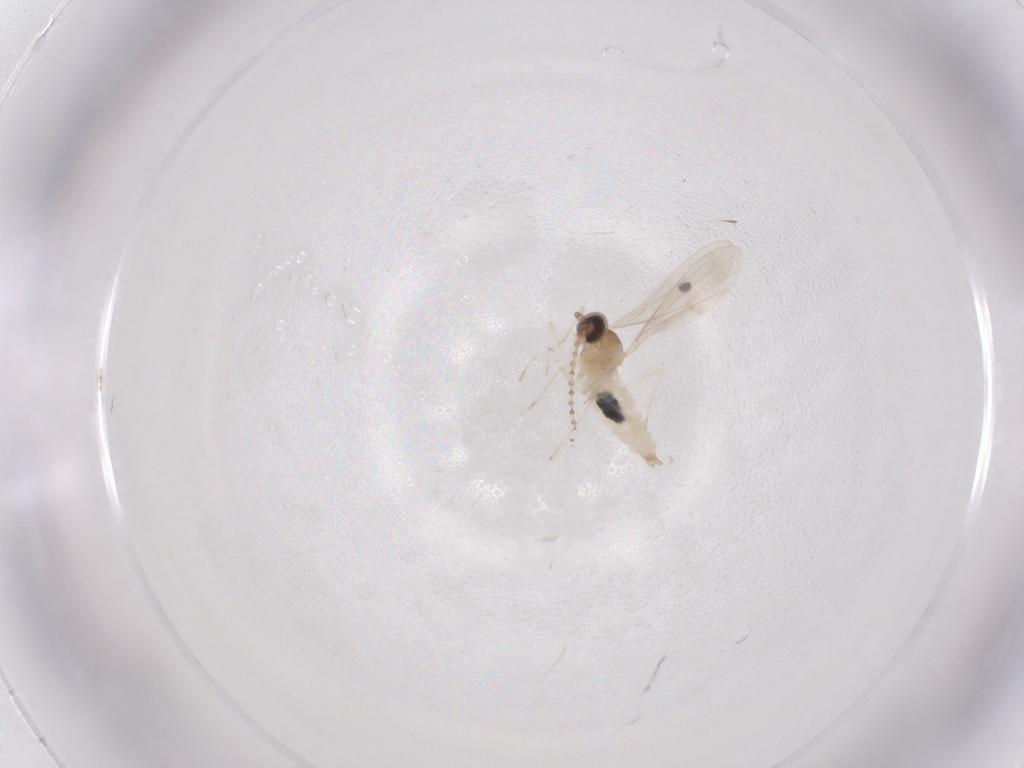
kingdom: Animalia
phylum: Arthropoda
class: Insecta
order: Diptera
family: Cecidomyiidae
